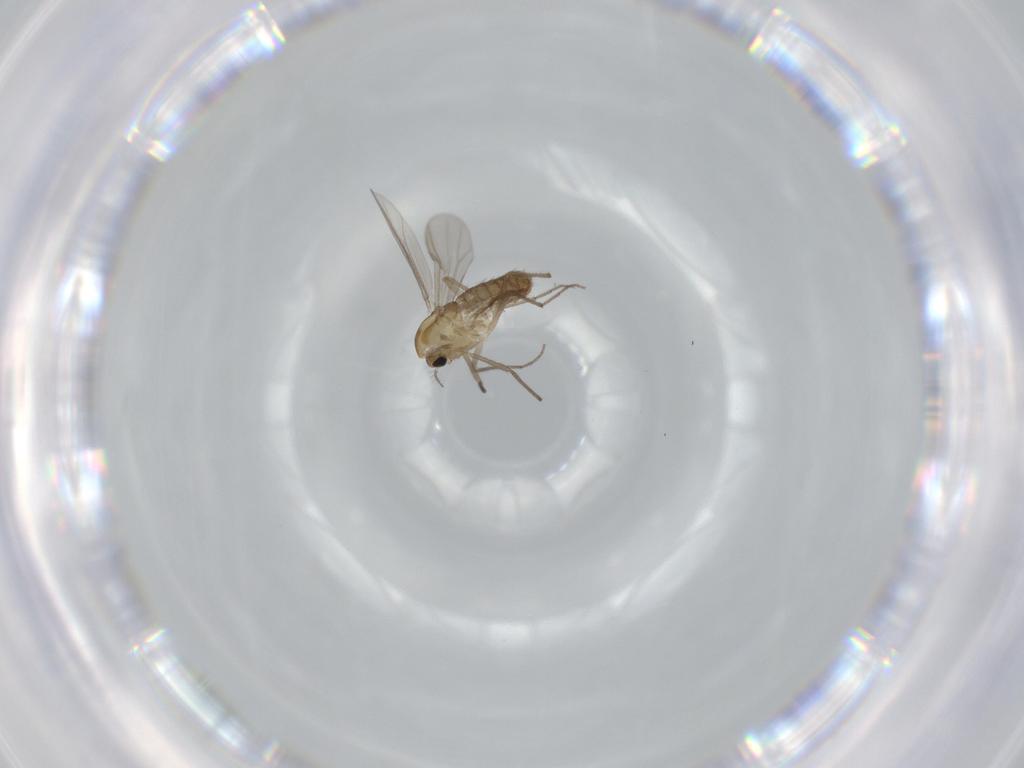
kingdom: Animalia
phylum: Arthropoda
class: Insecta
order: Diptera
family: Chironomidae
